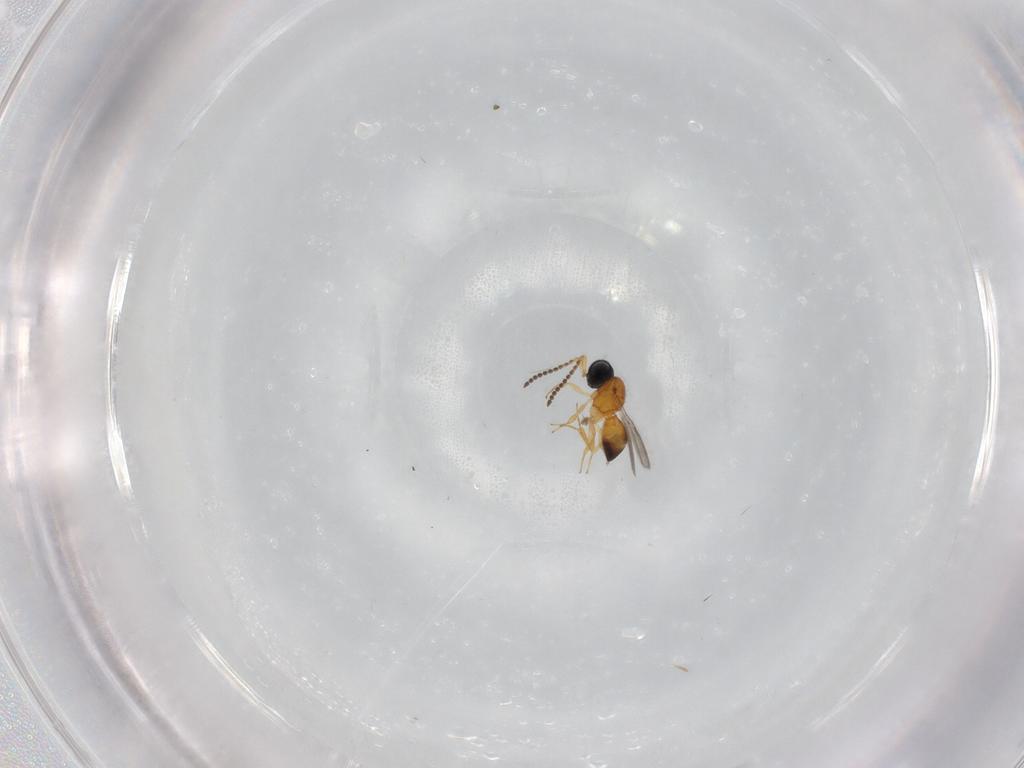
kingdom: Animalia
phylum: Arthropoda
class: Insecta
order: Hymenoptera
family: Scelionidae
